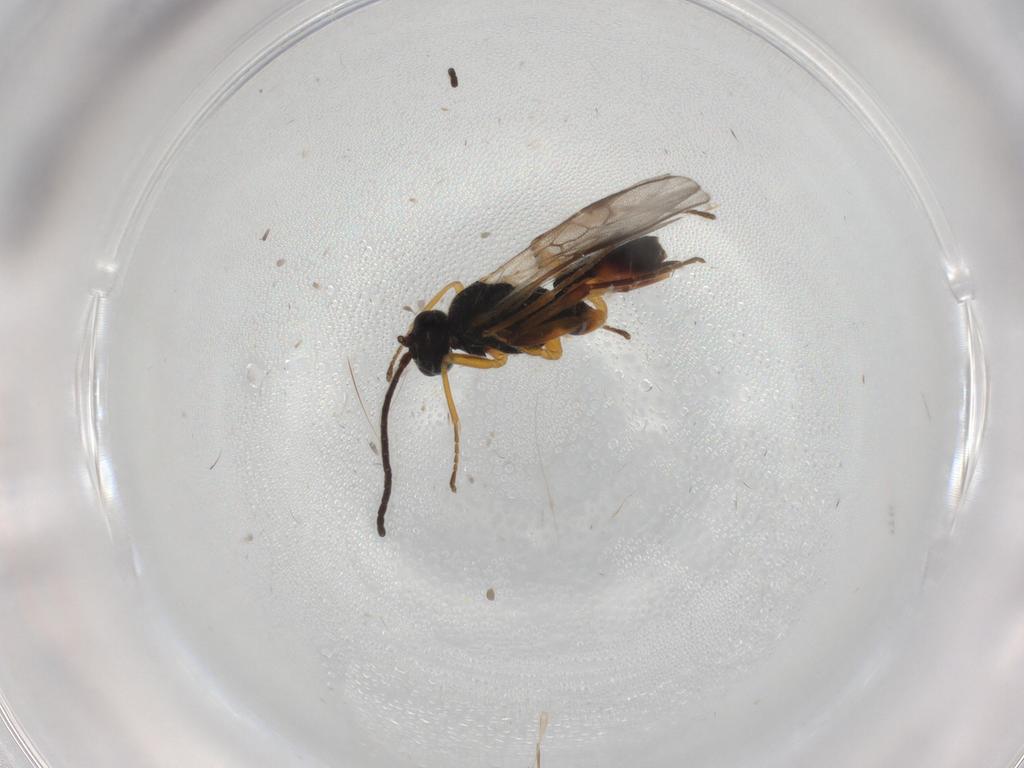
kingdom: Animalia
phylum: Arthropoda
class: Insecta
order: Hymenoptera
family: Braconidae
